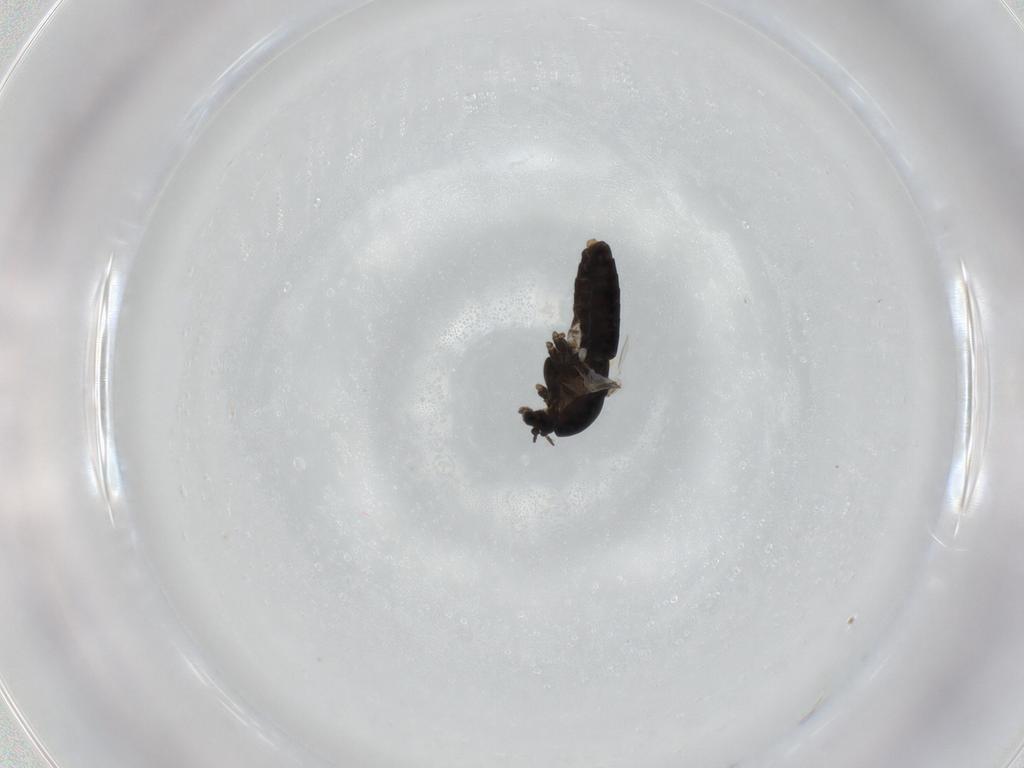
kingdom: Animalia
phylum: Arthropoda
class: Insecta
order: Diptera
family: Chironomidae
